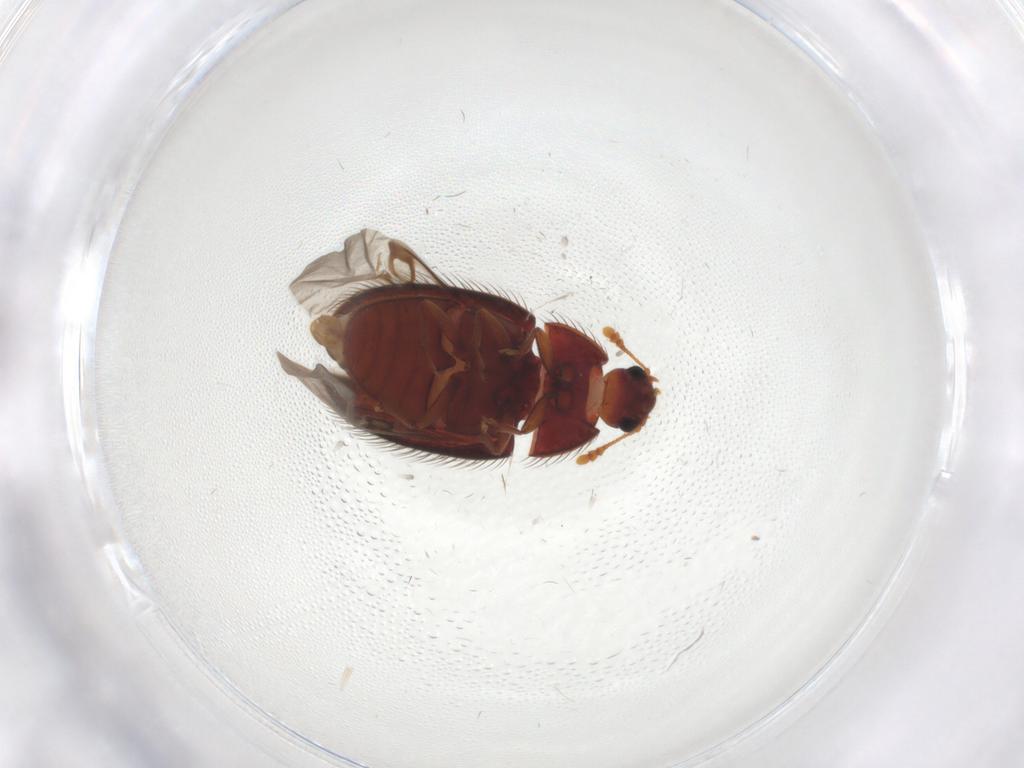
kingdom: Animalia
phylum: Arthropoda
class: Insecta
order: Coleoptera
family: Biphyllidae
